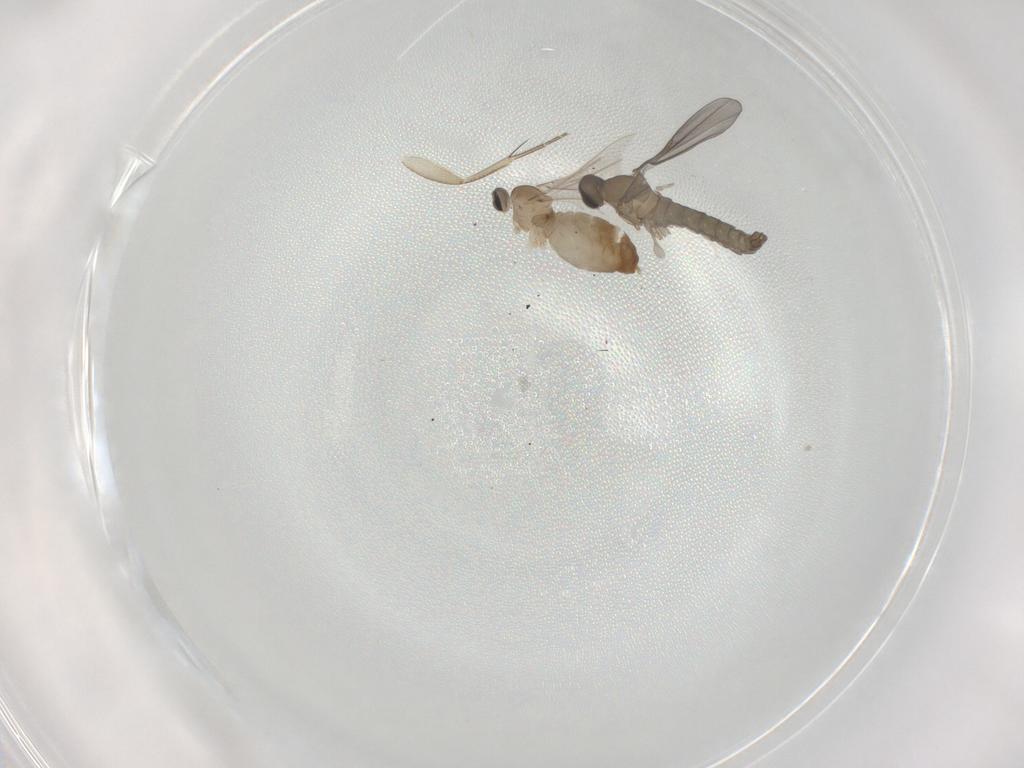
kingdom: Animalia
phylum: Arthropoda
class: Insecta
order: Diptera
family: Phoridae
